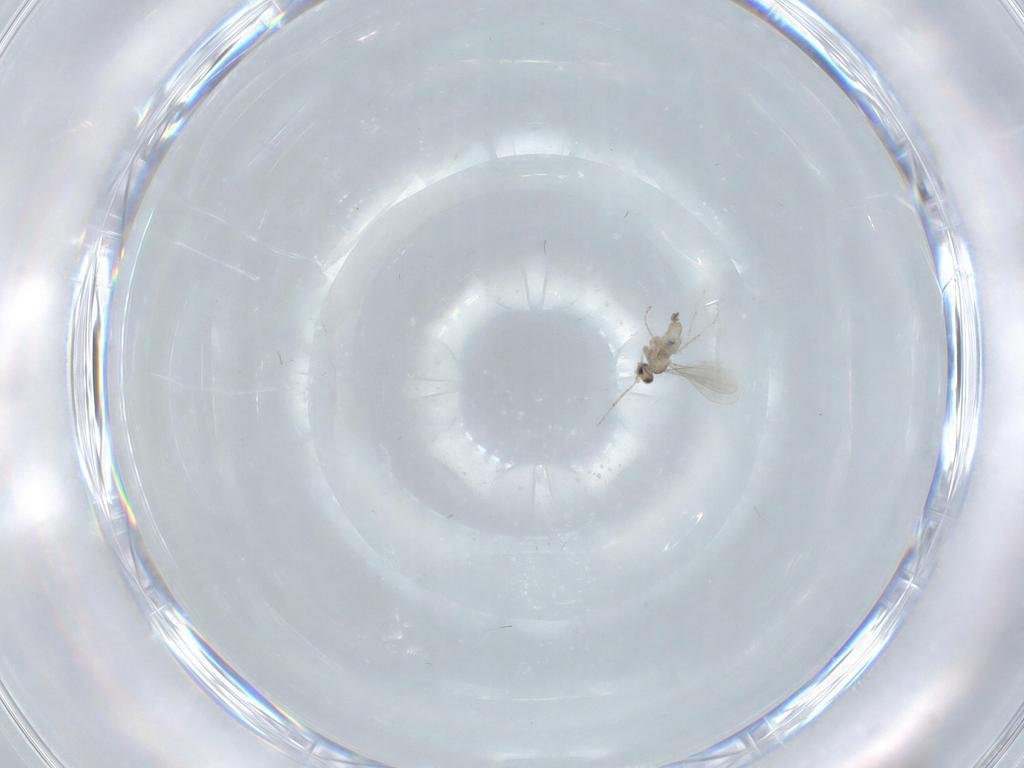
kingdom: Animalia
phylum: Arthropoda
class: Insecta
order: Diptera
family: Cecidomyiidae
